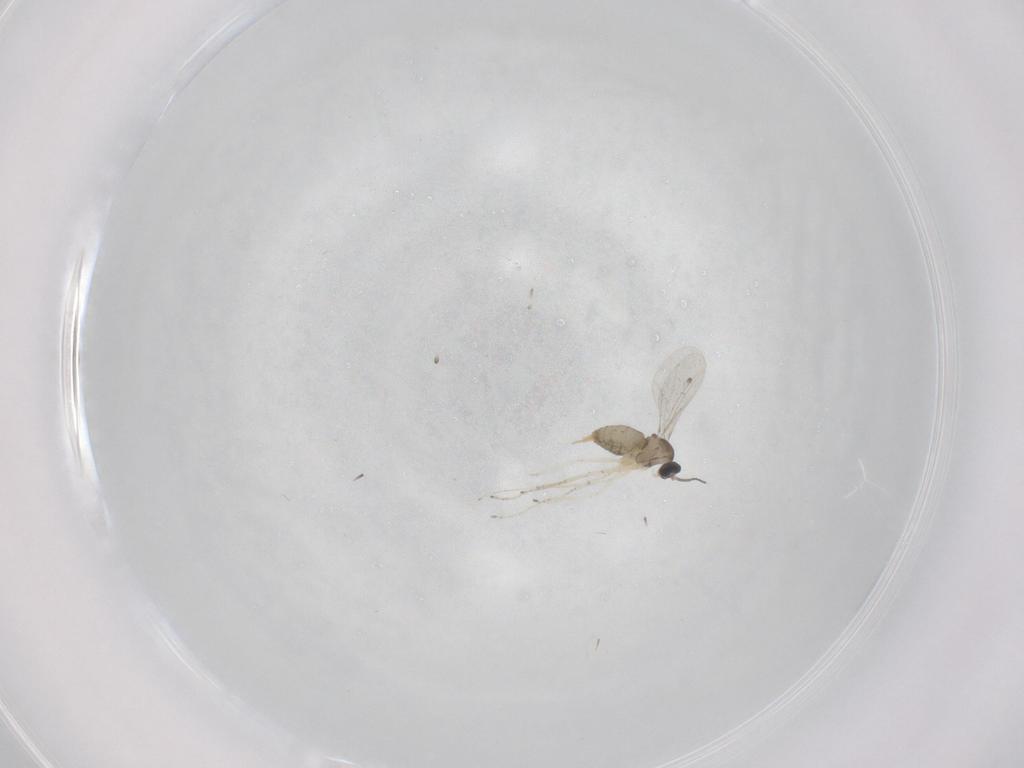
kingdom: Animalia
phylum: Arthropoda
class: Insecta
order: Diptera
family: Cecidomyiidae
